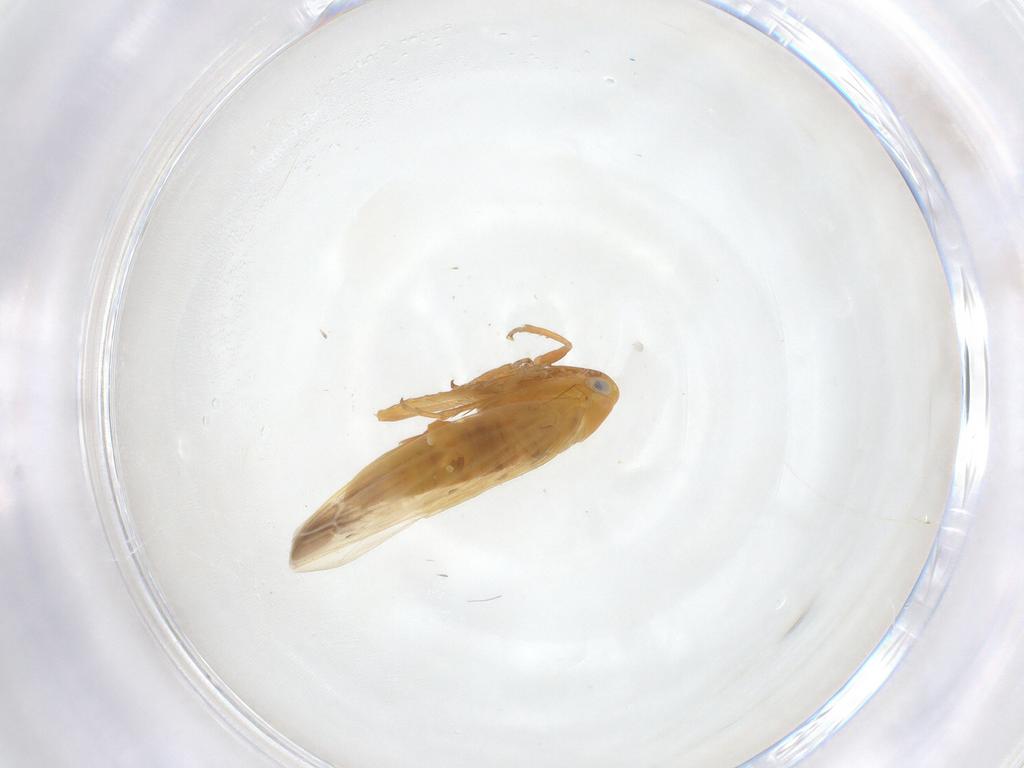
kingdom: Animalia
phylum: Arthropoda
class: Insecta
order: Hemiptera
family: Cicadellidae
